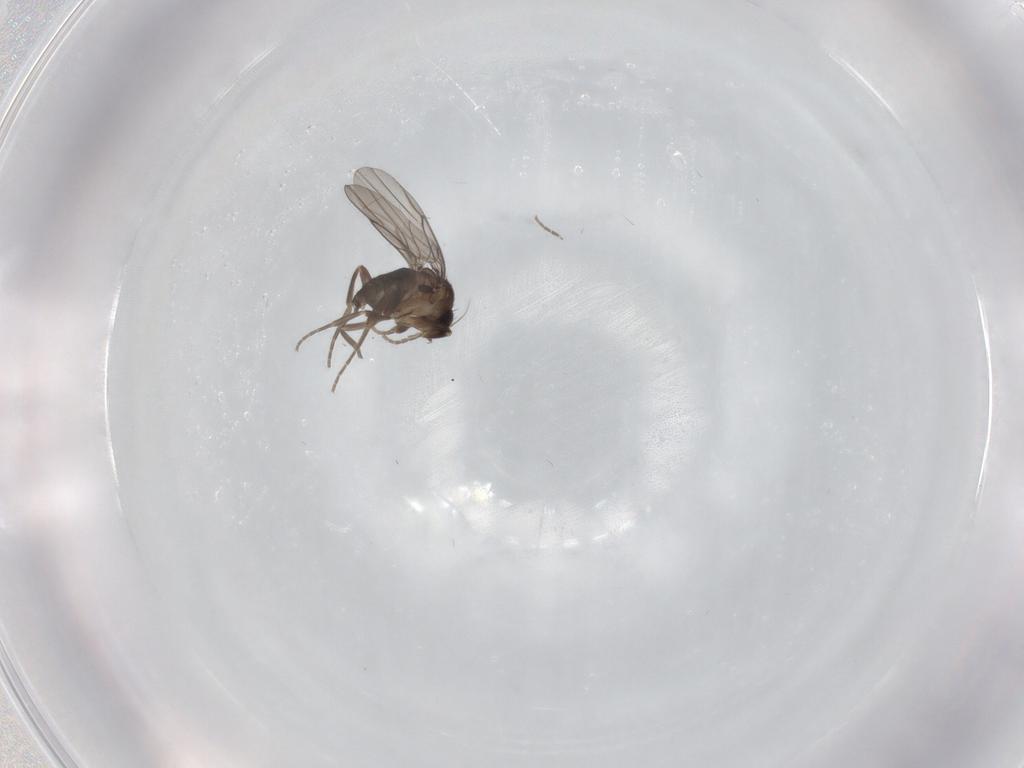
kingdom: Animalia
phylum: Arthropoda
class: Insecta
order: Diptera
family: Phoridae
